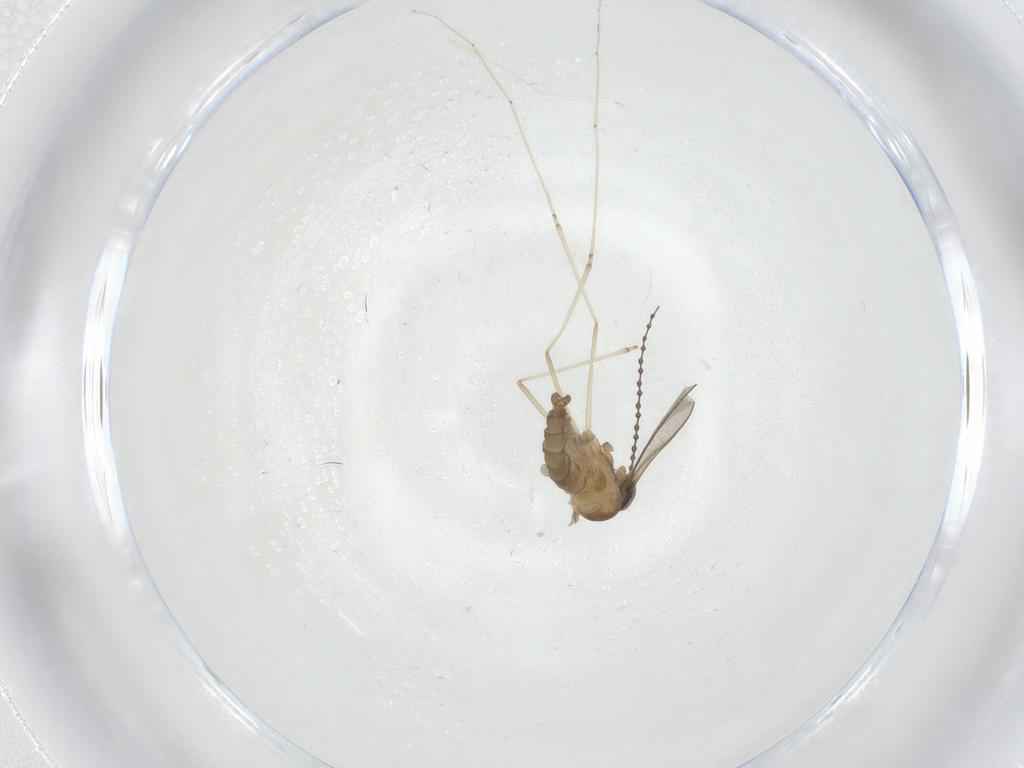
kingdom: Animalia
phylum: Arthropoda
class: Insecta
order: Diptera
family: Cecidomyiidae
